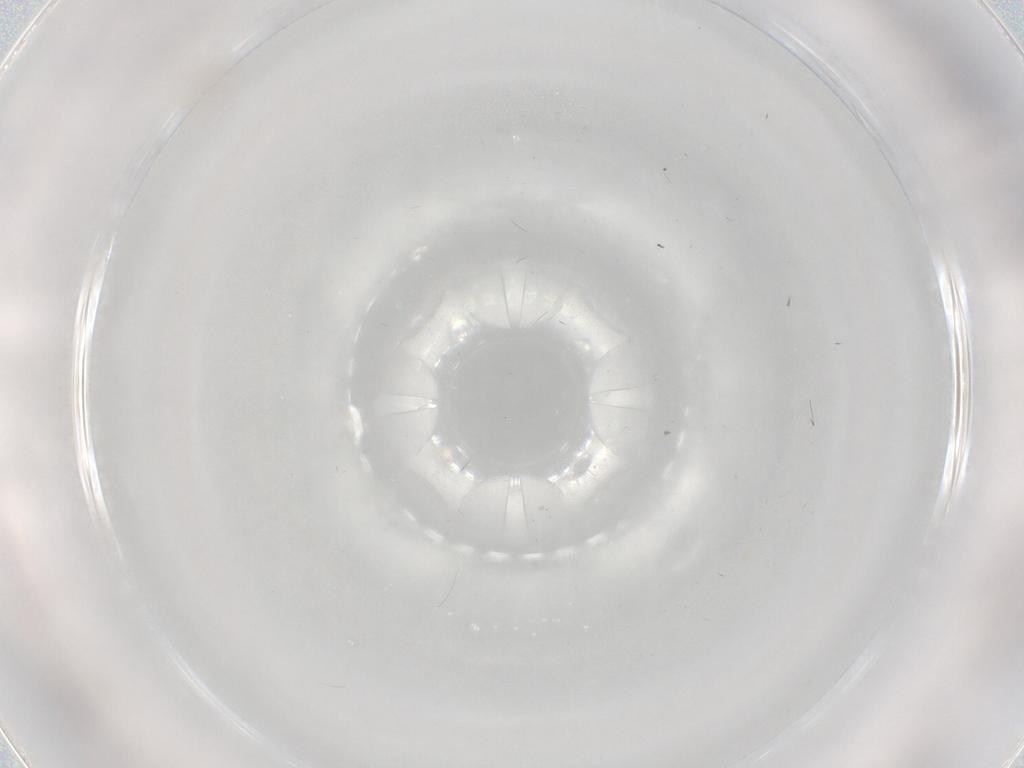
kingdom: Animalia
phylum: Arthropoda
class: Insecta
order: Hymenoptera
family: Mymaridae
